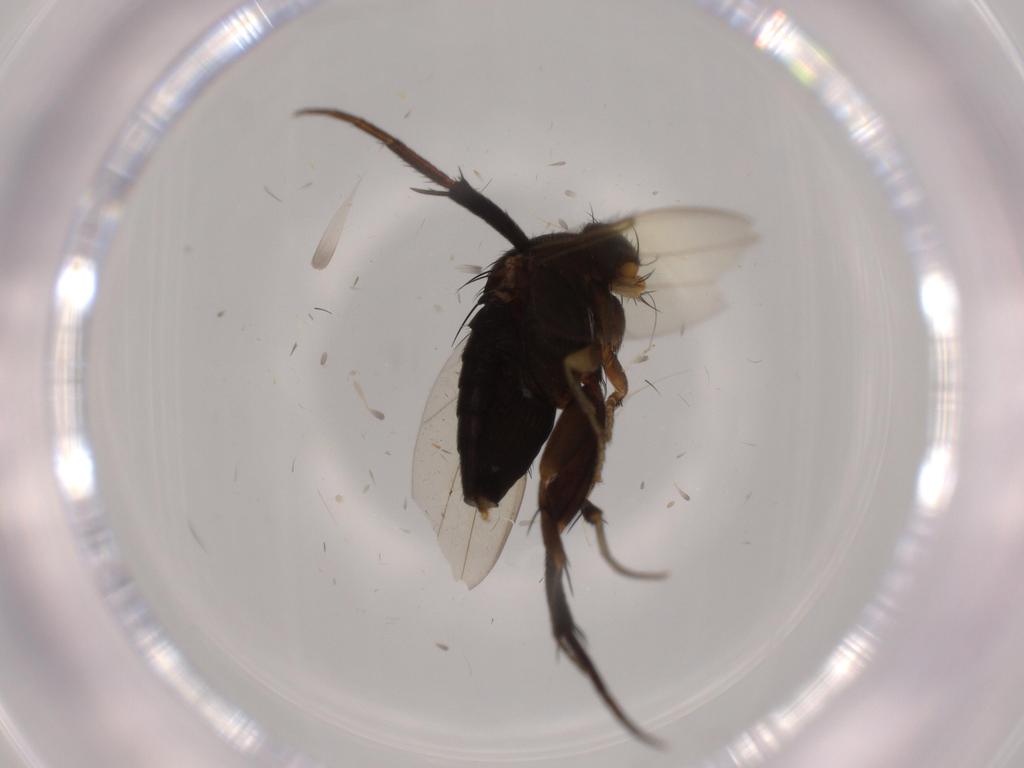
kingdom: Animalia
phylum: Arthropoda
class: Insecta
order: Diptera
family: Phoridae
